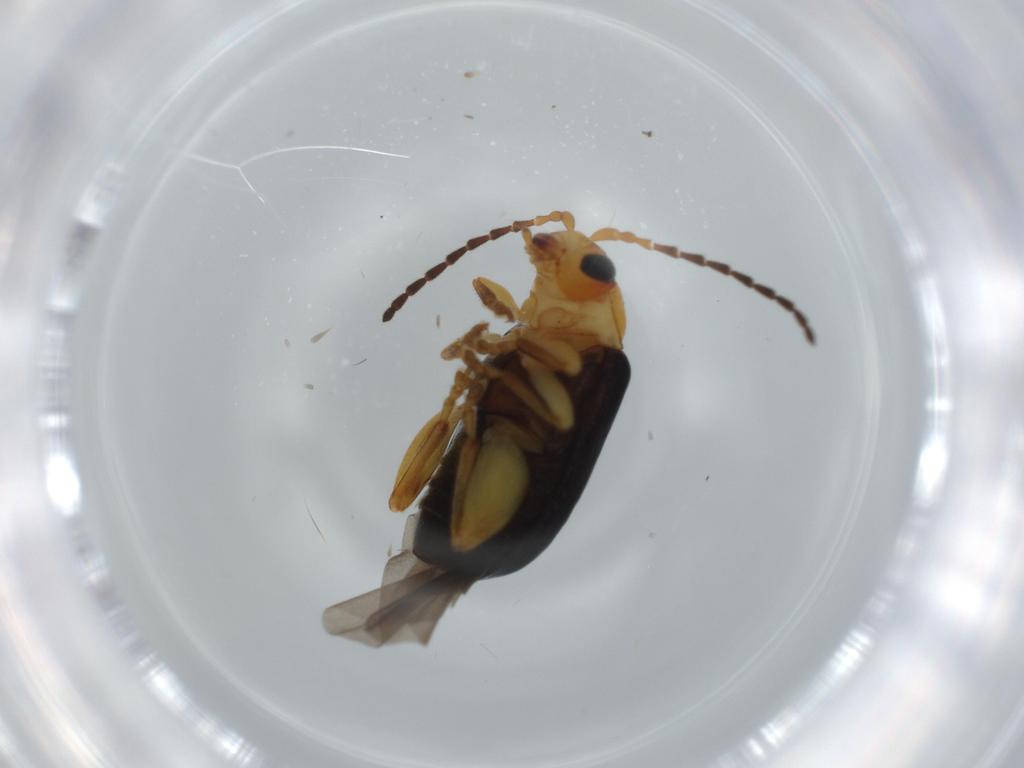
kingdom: Animalia
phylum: Arthropoda
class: Insecta
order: Coleoptera
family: Chrysomelidae
